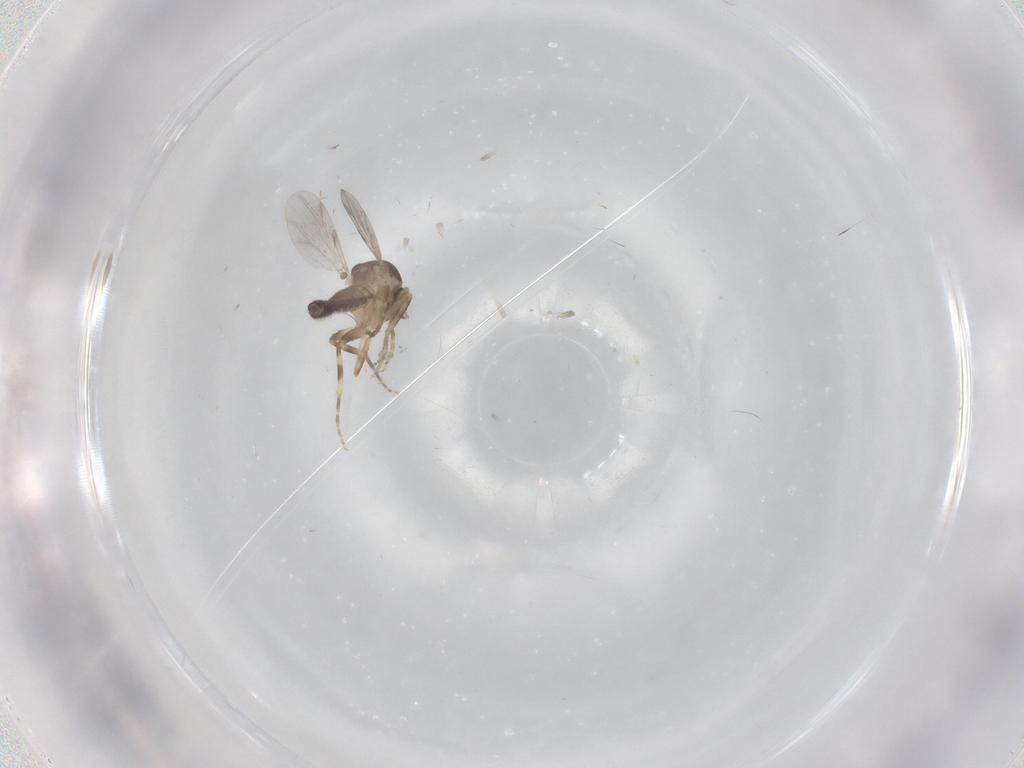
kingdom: Animalia
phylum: Arthropoda
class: Insecta
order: Diptera
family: Ceratopogonidae
